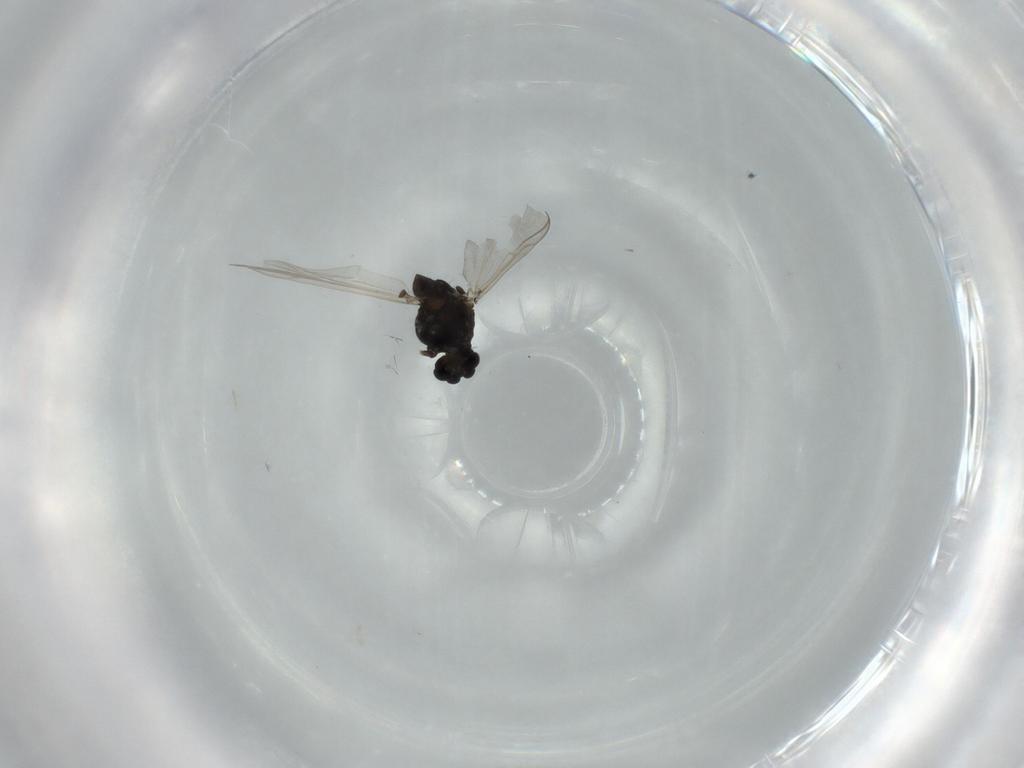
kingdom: Animalia
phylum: Arthropoda
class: Insecta
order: Diptera
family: Chironomidae
